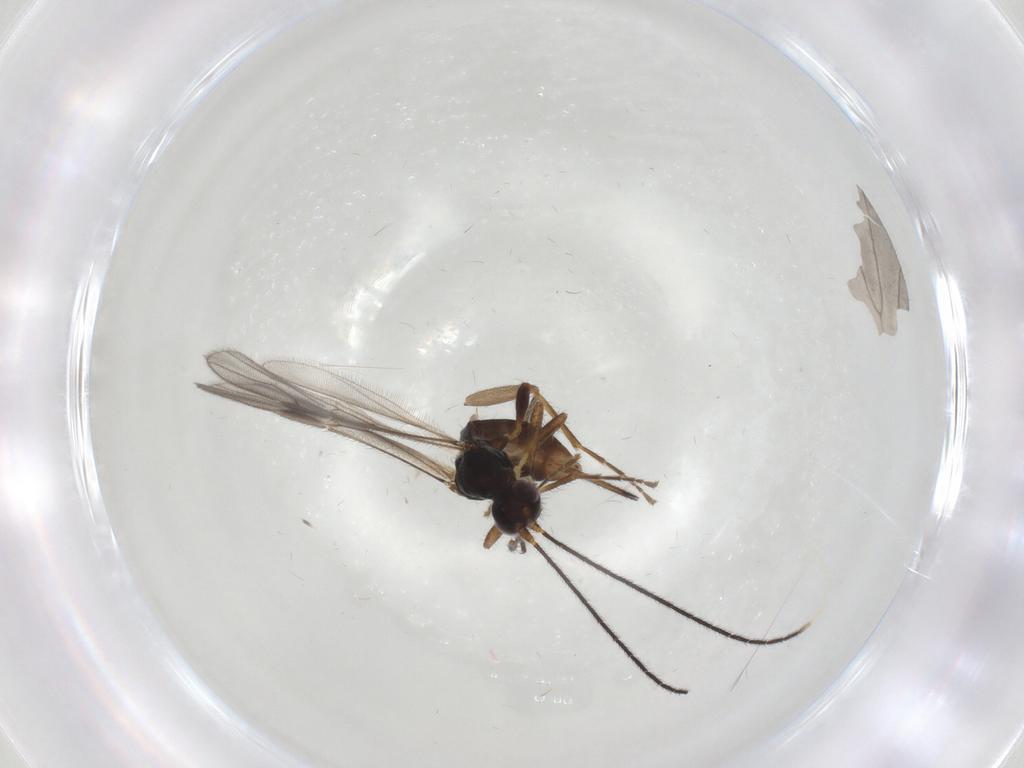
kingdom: Animalia
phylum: Arthropoda
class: Insecta
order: Hymenoptera
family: Braconidae
